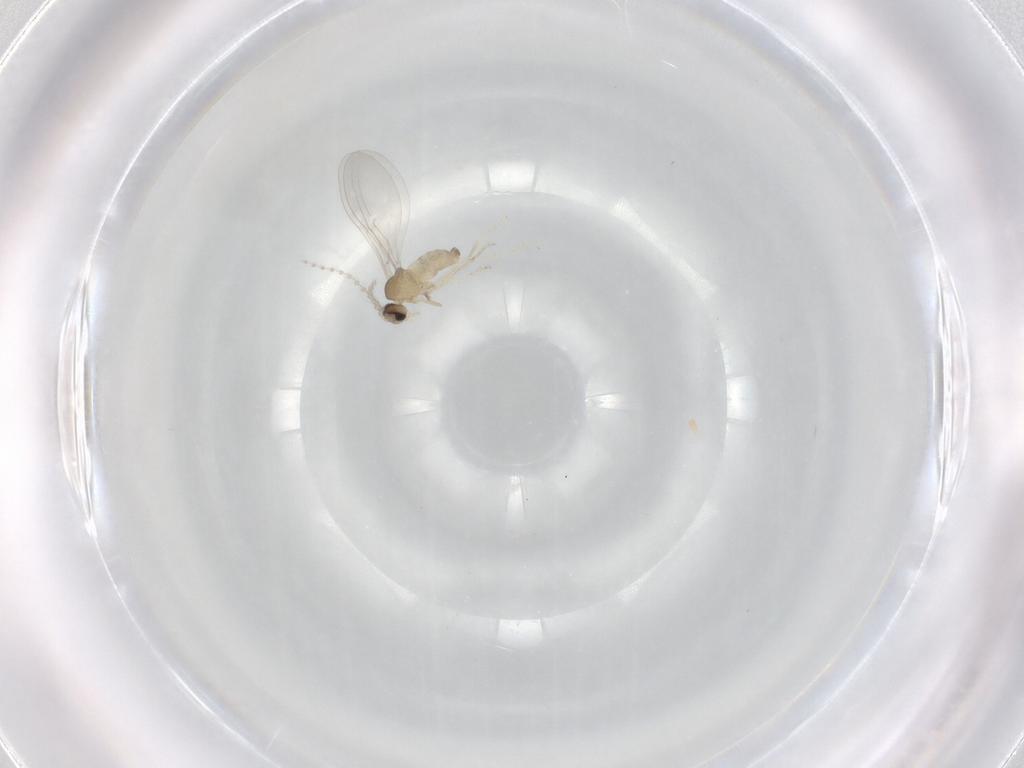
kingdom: Animalia
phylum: Arthropoda
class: Insecta
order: Diptera
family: Cecidomyiidae
